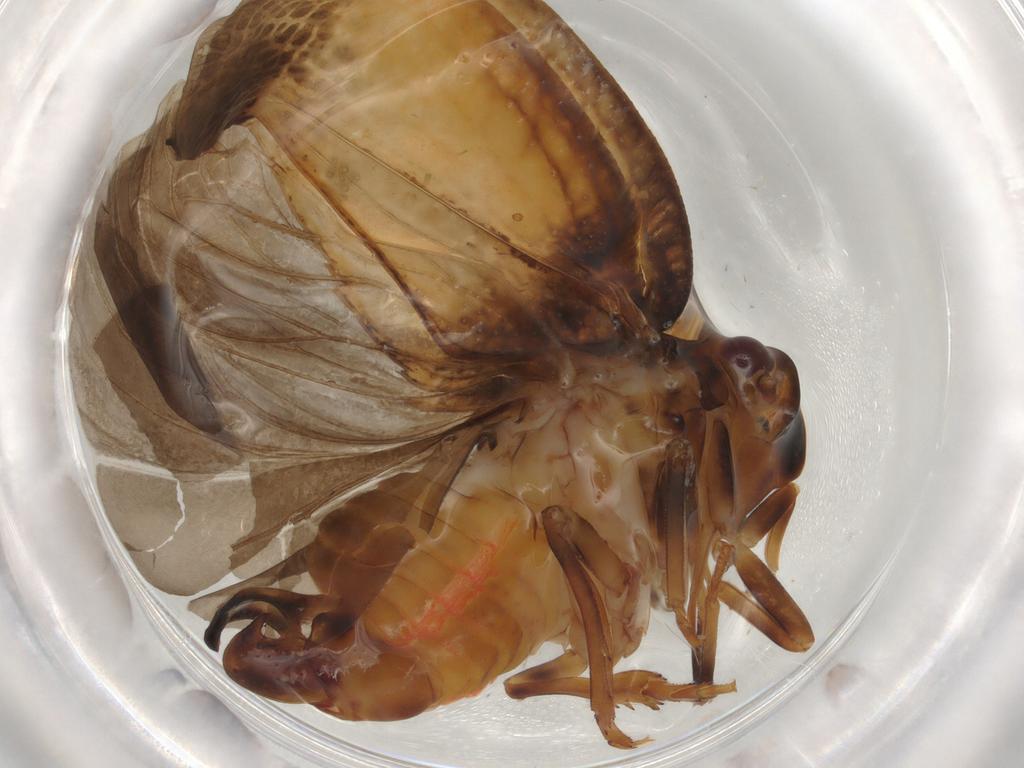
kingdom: Animalia
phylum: Arthropoda
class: Insecta
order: Hemiptera
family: Flatidae
